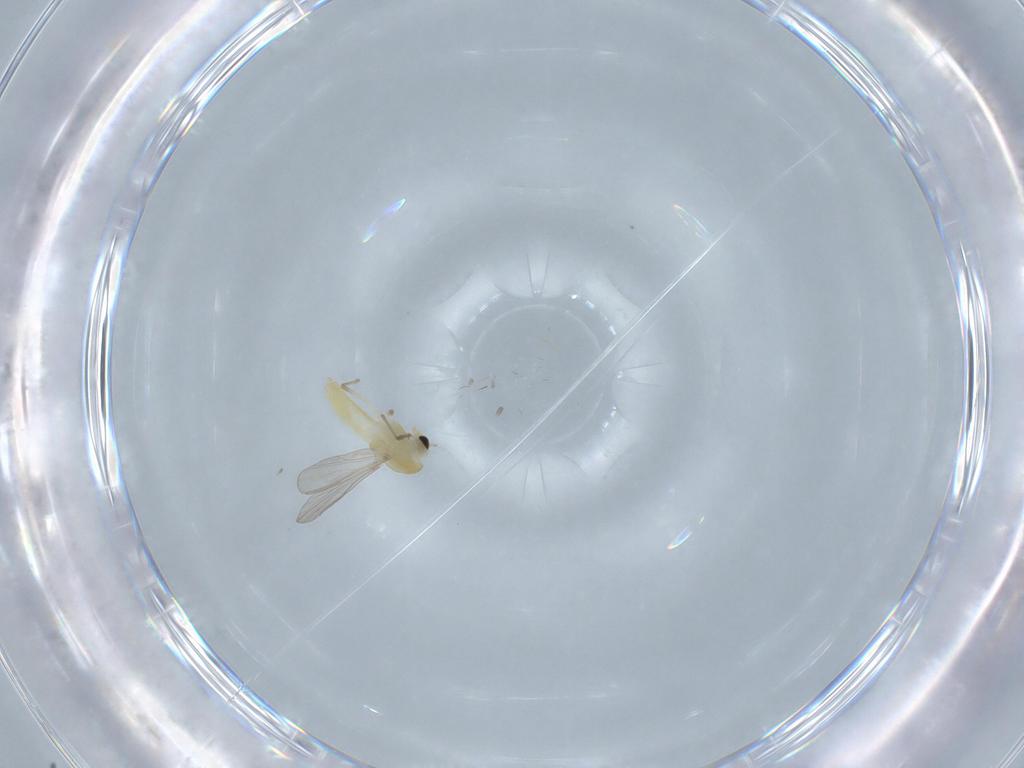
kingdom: Animalia
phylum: Arthropoda
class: Insecta
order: Diptera
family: Chironomidae
